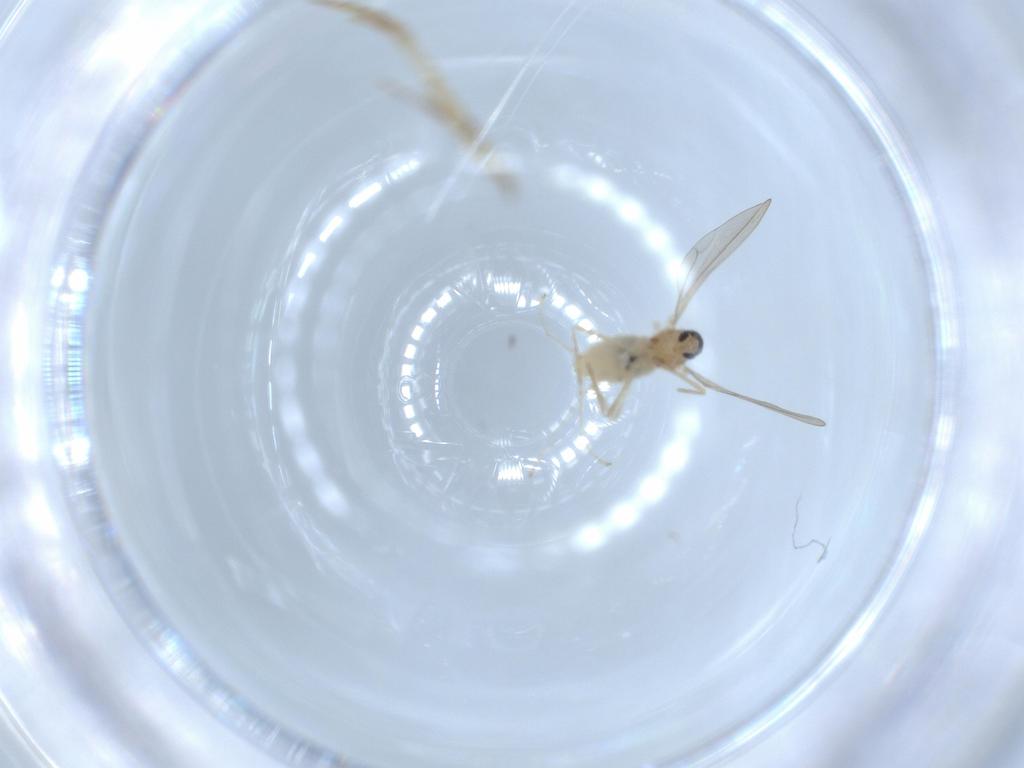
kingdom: Animalia
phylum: Arthropoda
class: Insecta
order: Diptera
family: Cecidomyiidae
